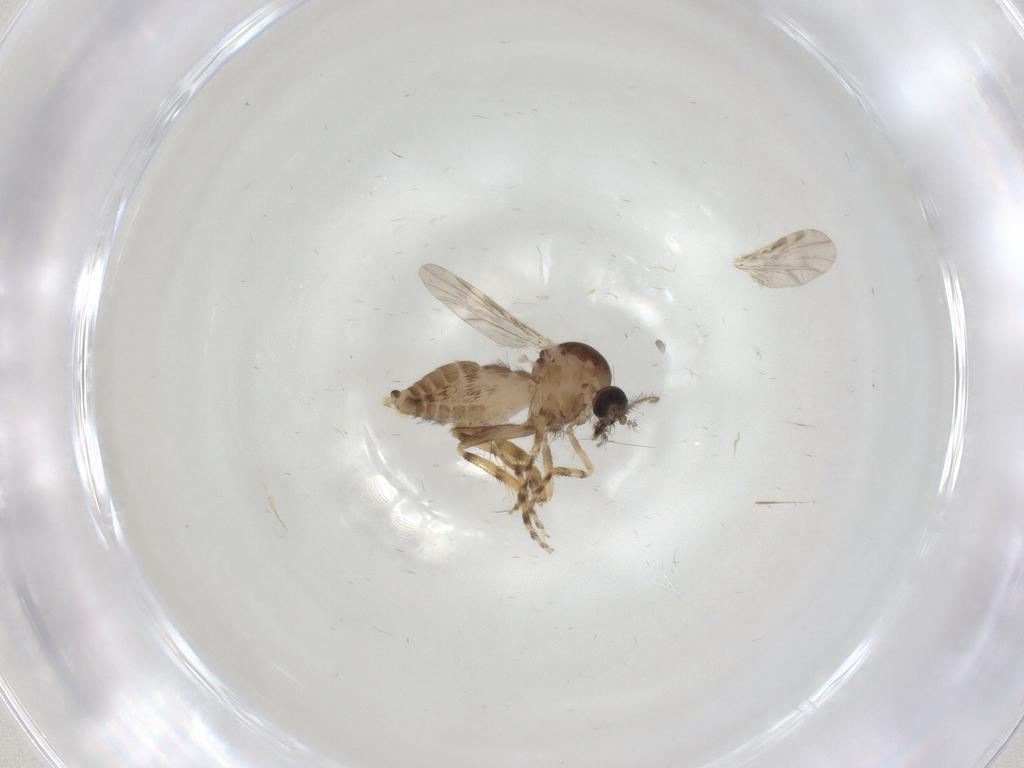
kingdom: Animalia
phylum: Arthropoda
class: Insecta
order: Diptera
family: Ceratopogonidae
